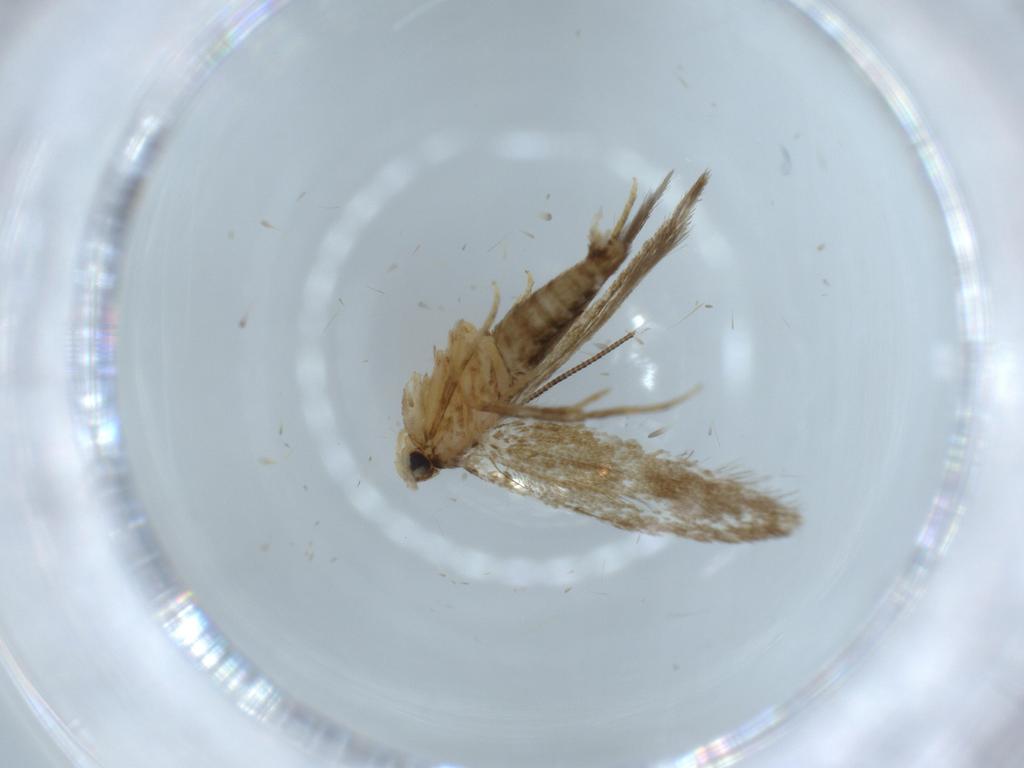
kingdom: Animalia
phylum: Arthropoda
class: Insecta
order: Lepidoptera
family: Tineidae
